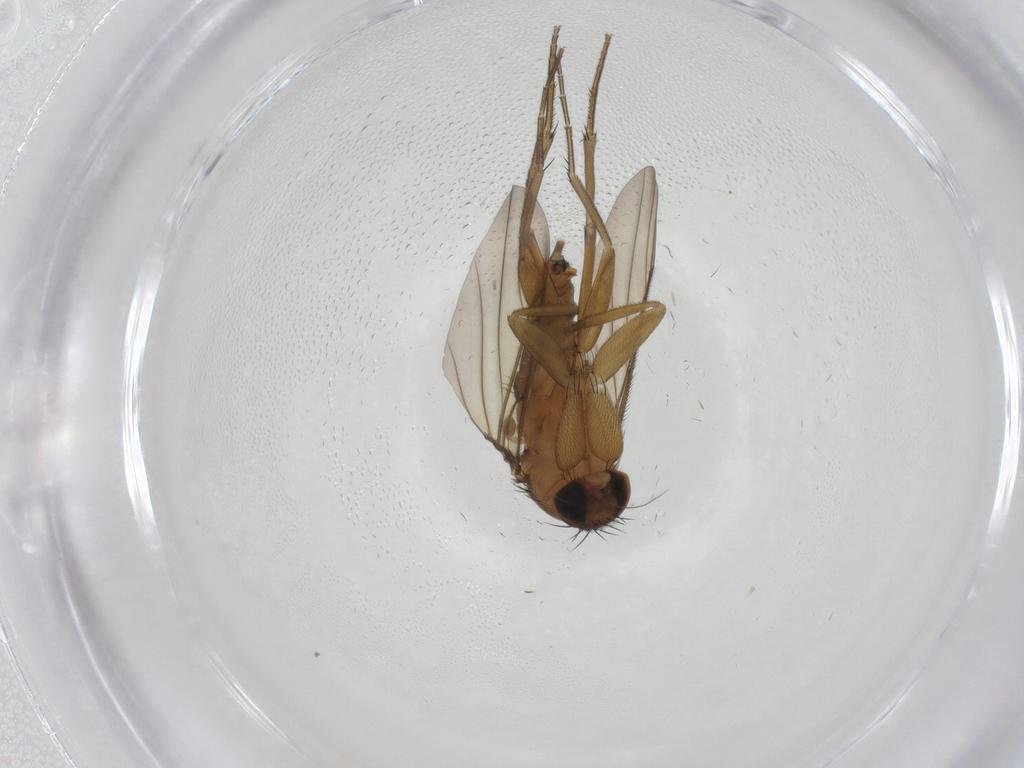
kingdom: Animalia
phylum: Arthropoda
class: Insecta
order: Diptera
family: Phoridae
